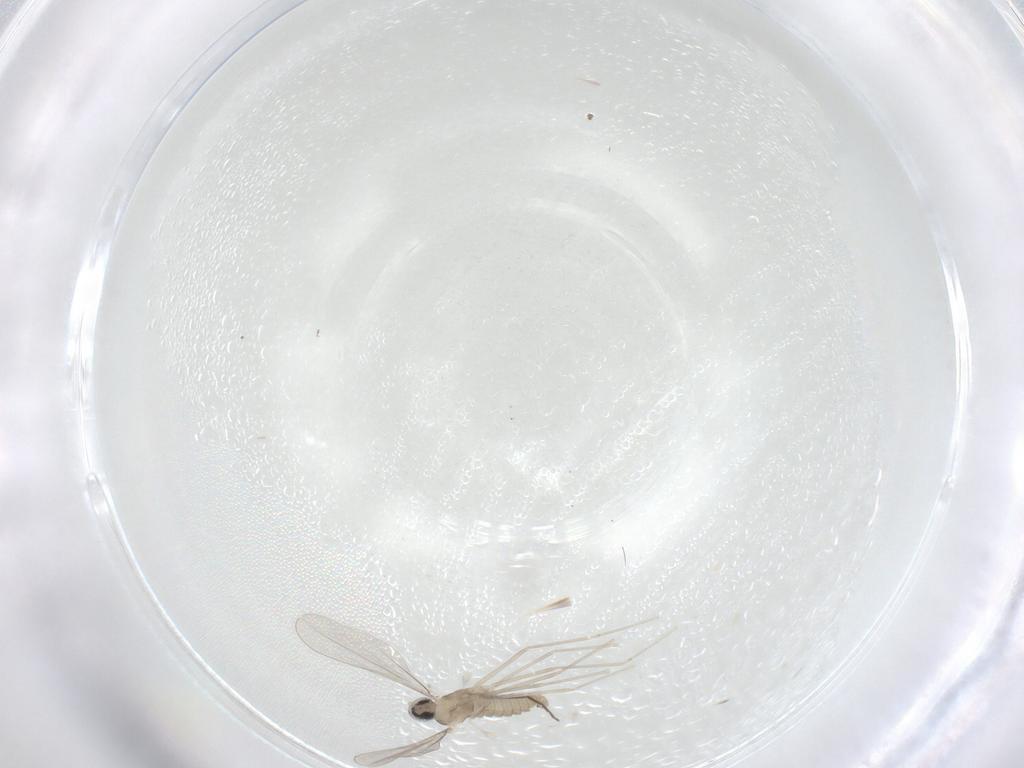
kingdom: Animalia
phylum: Arthropoda
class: Insecta
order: Diptera
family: Cecidomyiidae
